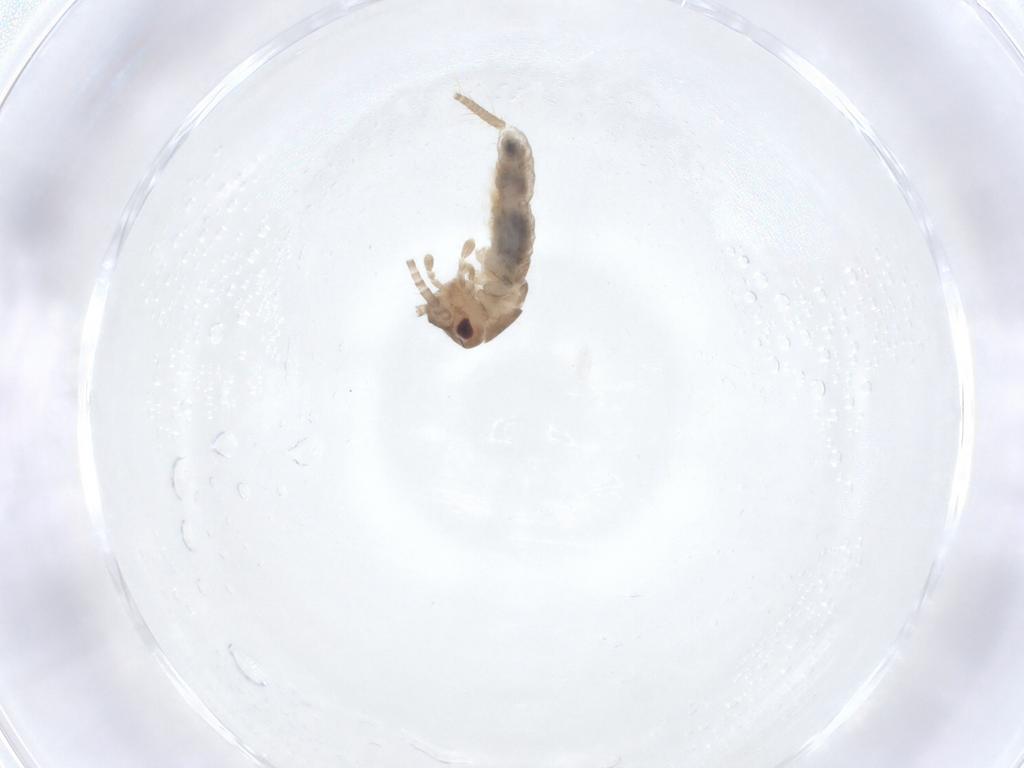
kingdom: Animalia
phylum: Arthropoda
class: Insecta
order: Orthoptera
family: Gryllidae
